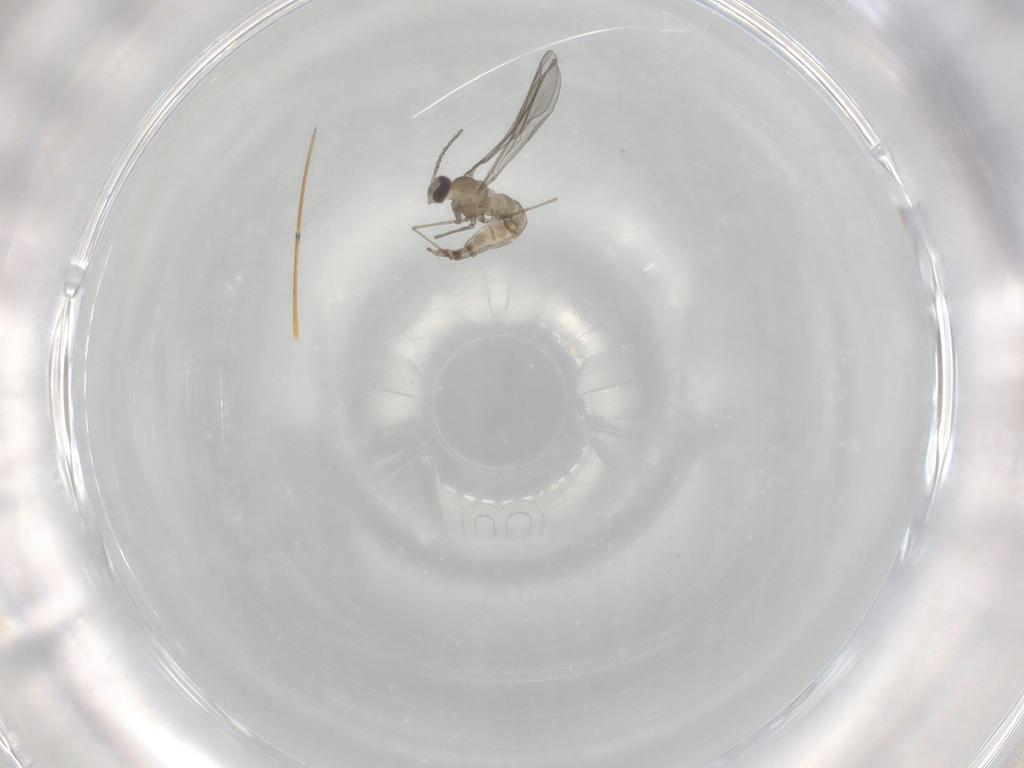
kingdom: Animalia
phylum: Arthropoda
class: Insecta
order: Diptera
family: Cecidomyiidae
